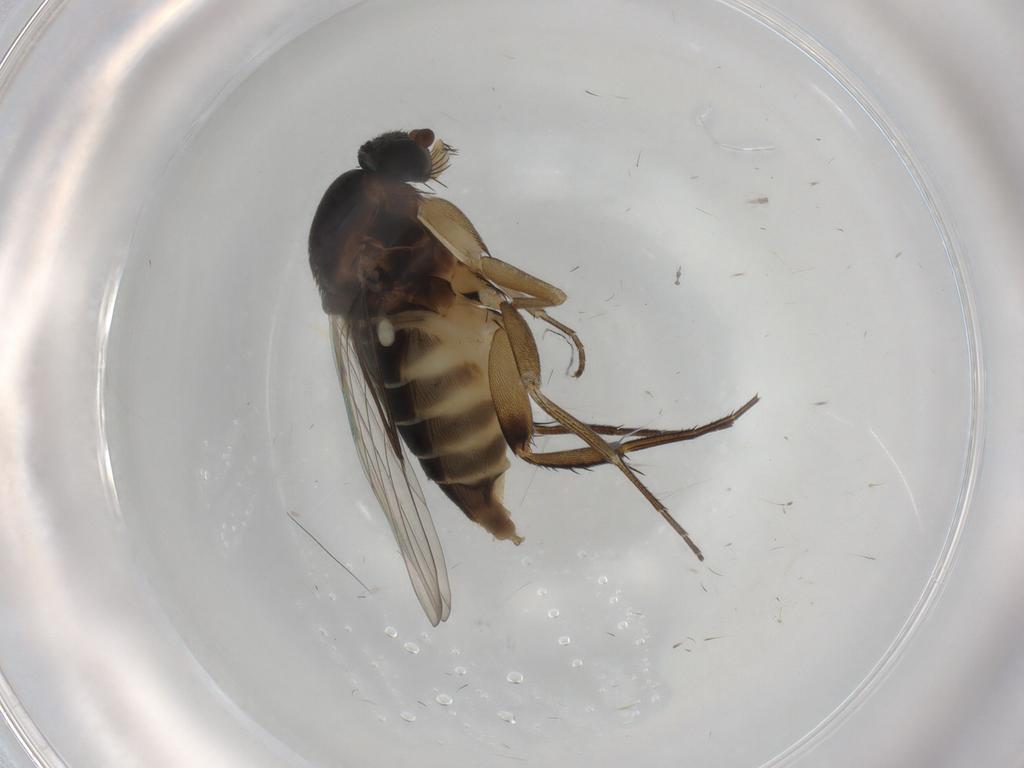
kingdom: Animalia
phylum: Arthropoda
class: Insecta
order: Diptera
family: Phoridae
